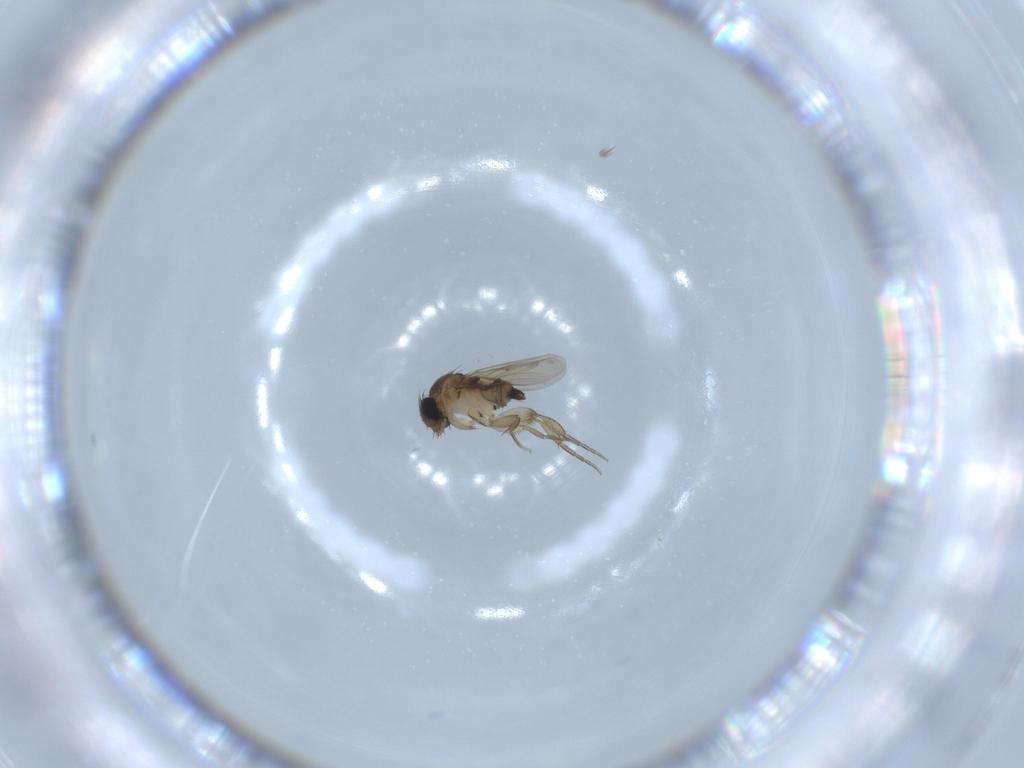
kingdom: Animalia
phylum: Arthropoda
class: Insecta
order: Diptera
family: Phoridae
